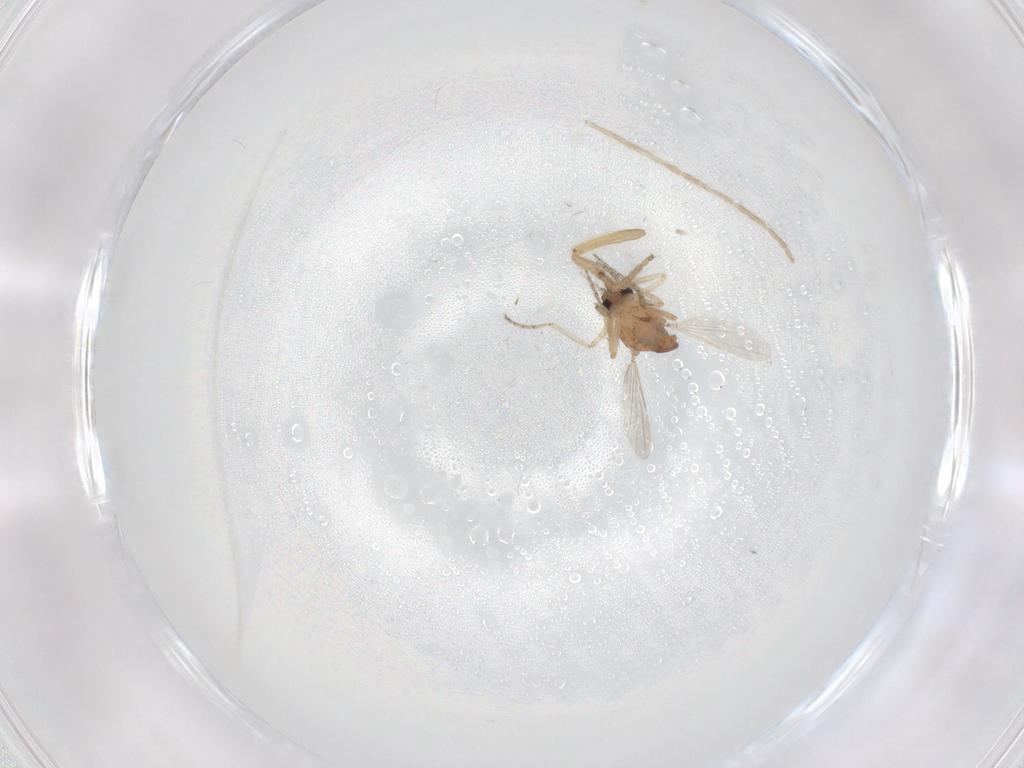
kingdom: Animalia
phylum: Arthropoda
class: Insecta
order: Diptera
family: Ceratopogonidae
